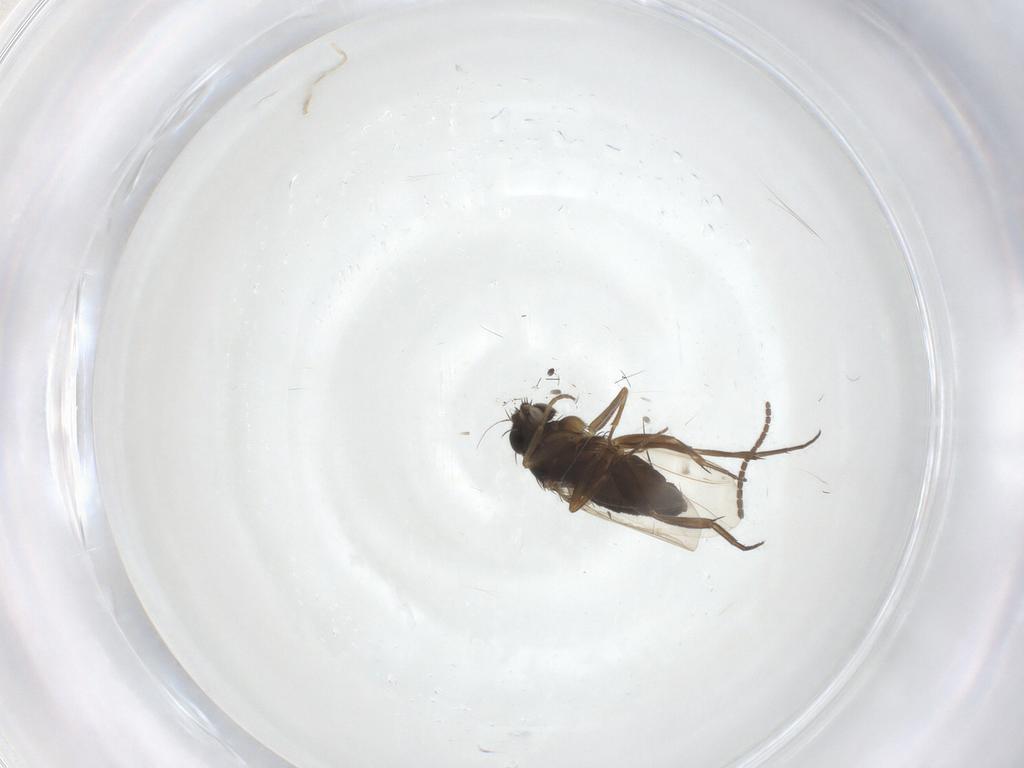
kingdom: Animalia
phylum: Arthropoda
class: Insecta
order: Diptera
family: Phoridae
